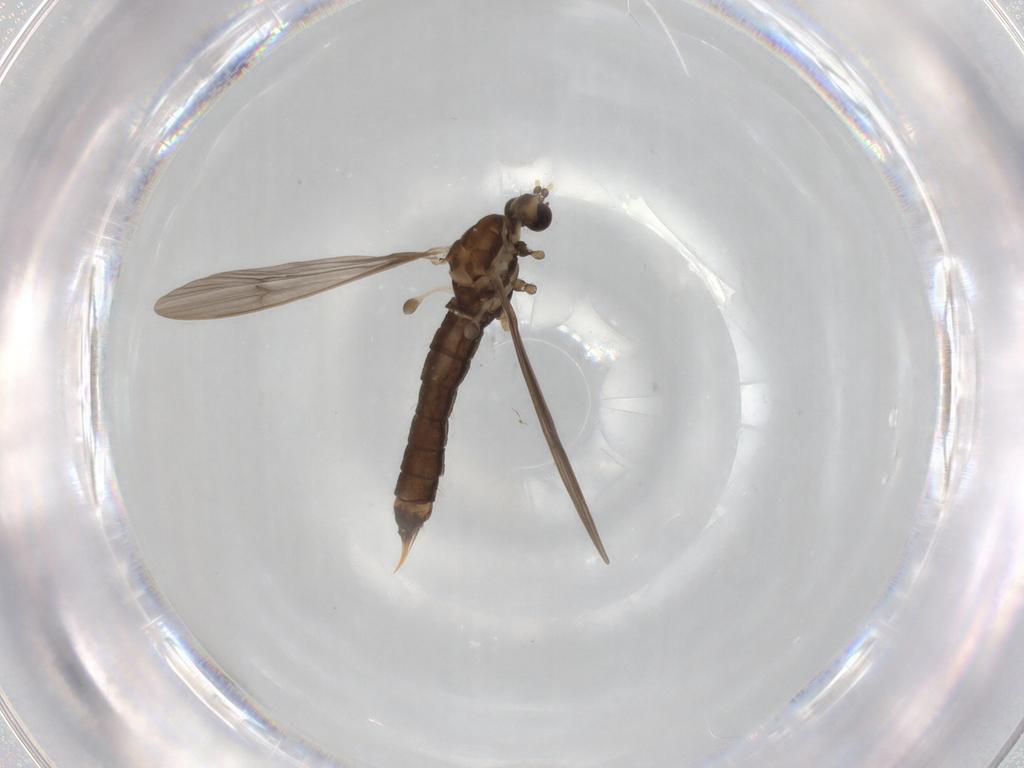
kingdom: Animalia
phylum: Arthropoda
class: Insecta
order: Diptera
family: Limoniidae
